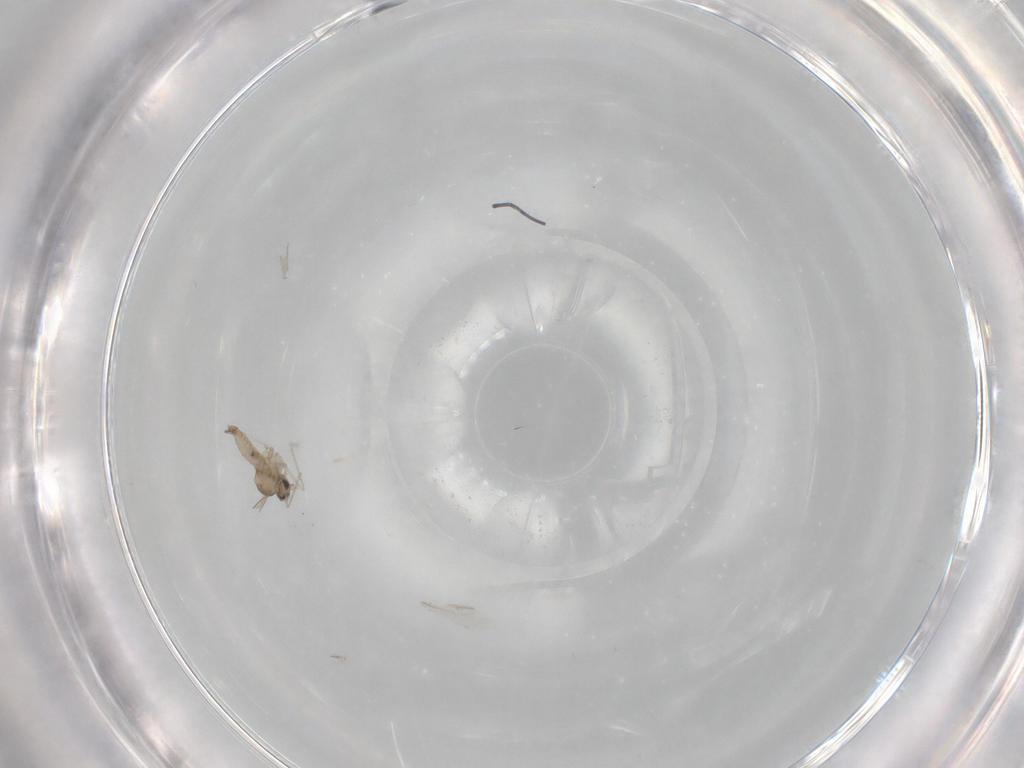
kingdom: Animalia
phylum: Arthropoda
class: Insecta
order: Diptera
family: Cecidomyiidae
